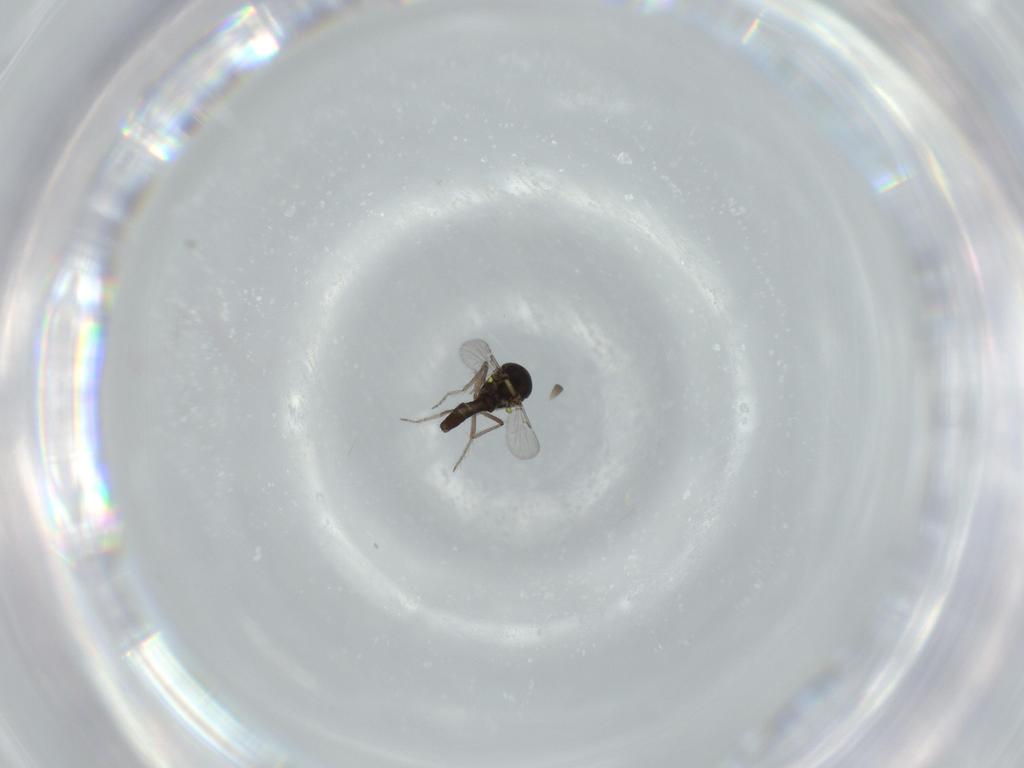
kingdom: Animalia
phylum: Arthropoda
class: Insecta
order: Diptera
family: Ceratopogonidae
